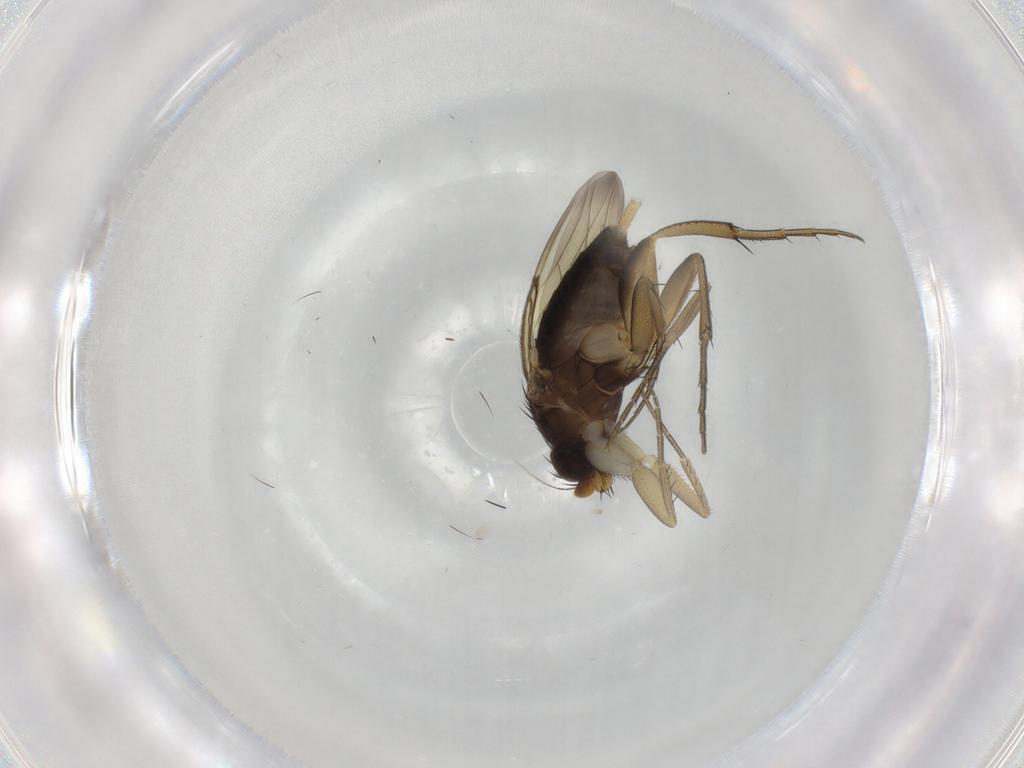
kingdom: Animalia
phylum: Arthropoda
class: Insecta
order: Diptera
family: Phoridae
